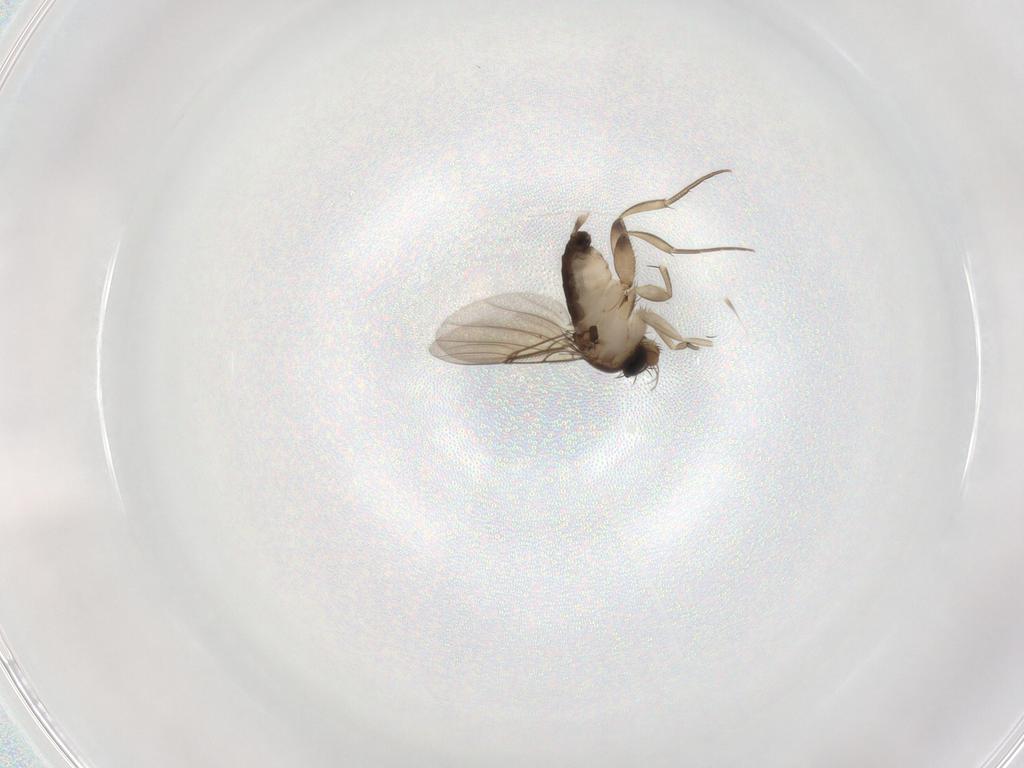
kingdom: Animalia
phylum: Arthropoda
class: Insecta
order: Diptera
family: Phoridae
